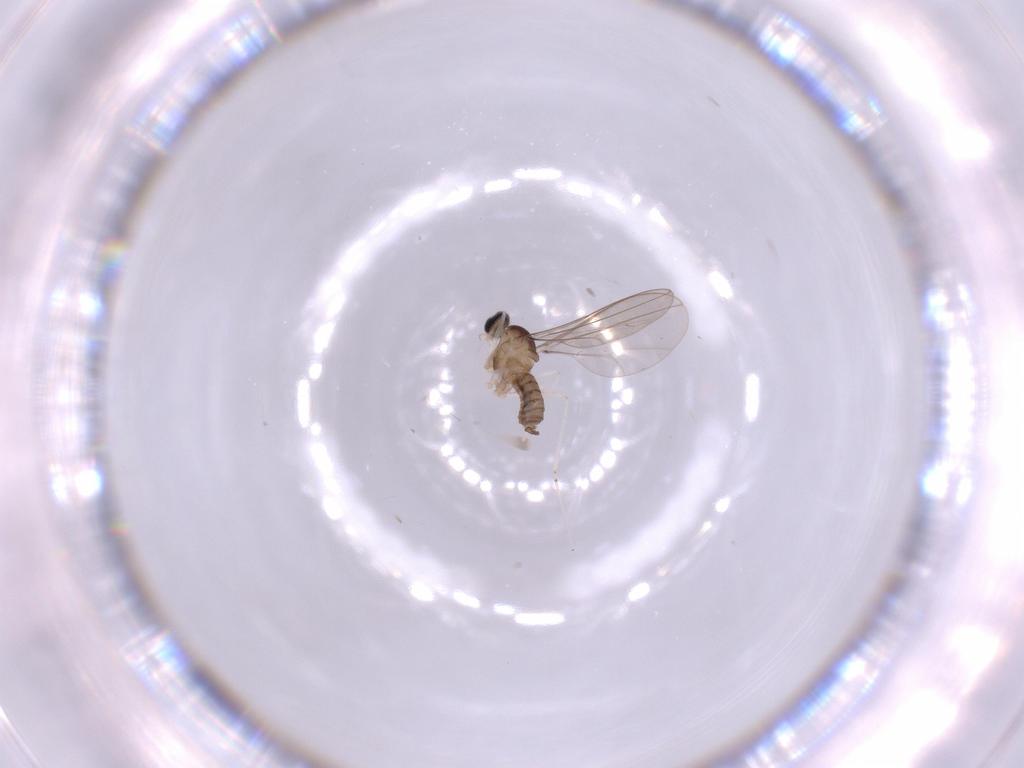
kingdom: Animalia
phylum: Arthropoda
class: Insecta
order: Diptera
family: Cecidomyiidae
